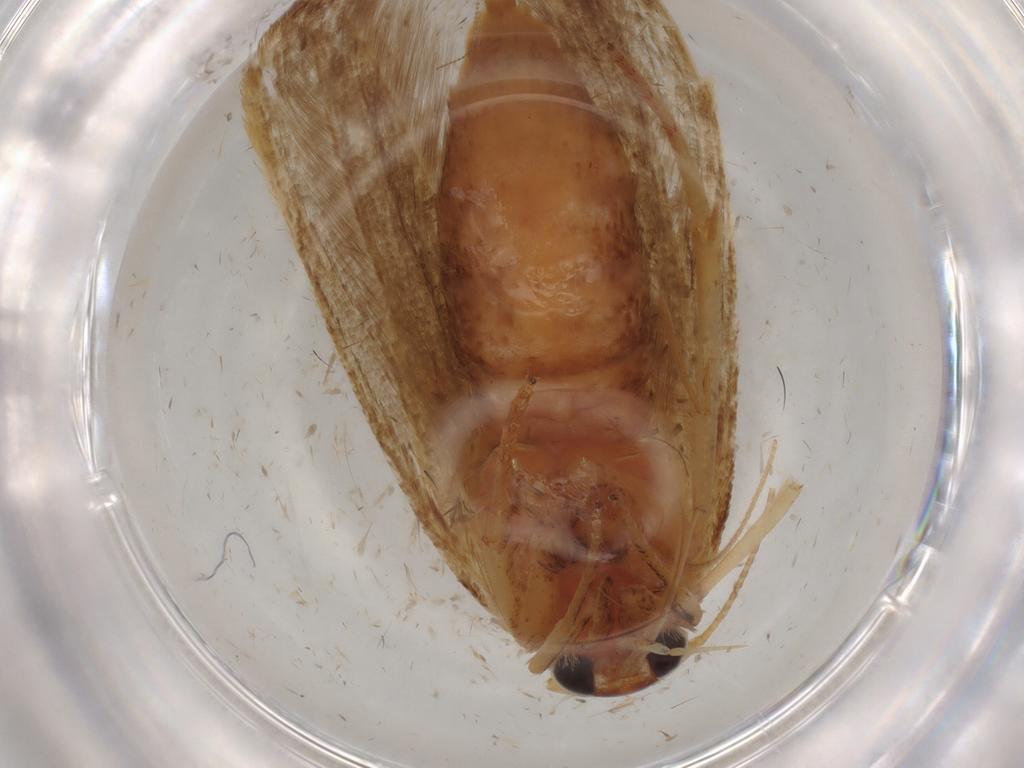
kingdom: Animalia
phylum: Arthropoda
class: Insecta
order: Lepidoptera
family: Blastobasidae
